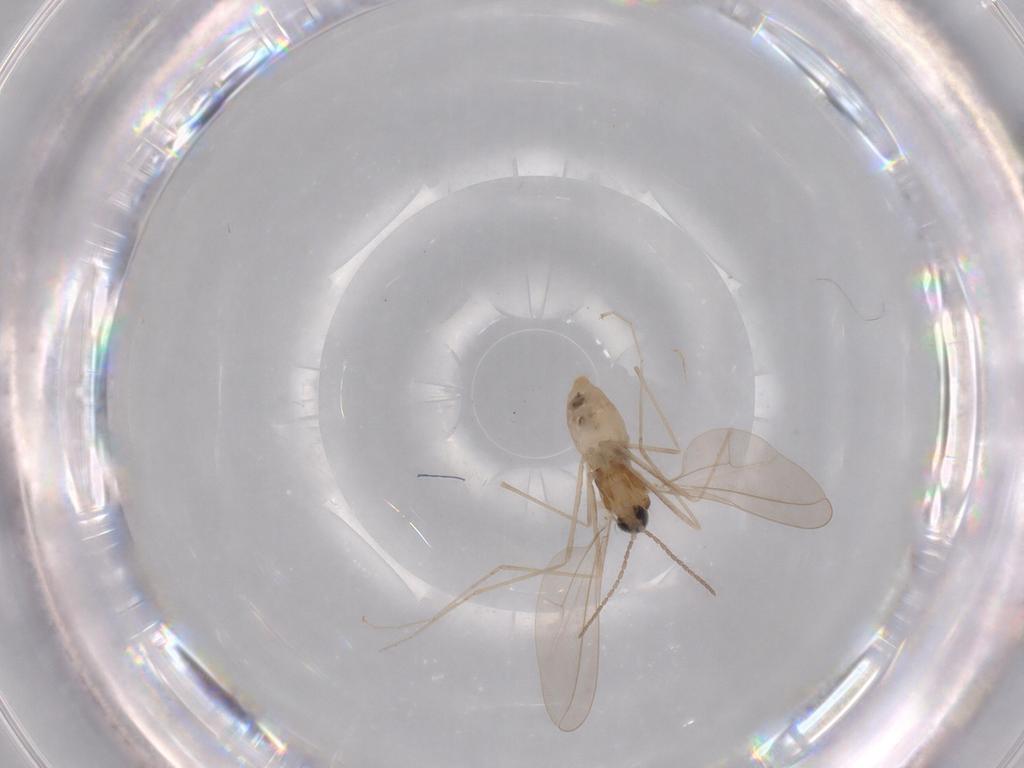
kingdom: Animalia
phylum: Arthropoda
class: Insecta
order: Diptera
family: Cecidomyiidae
